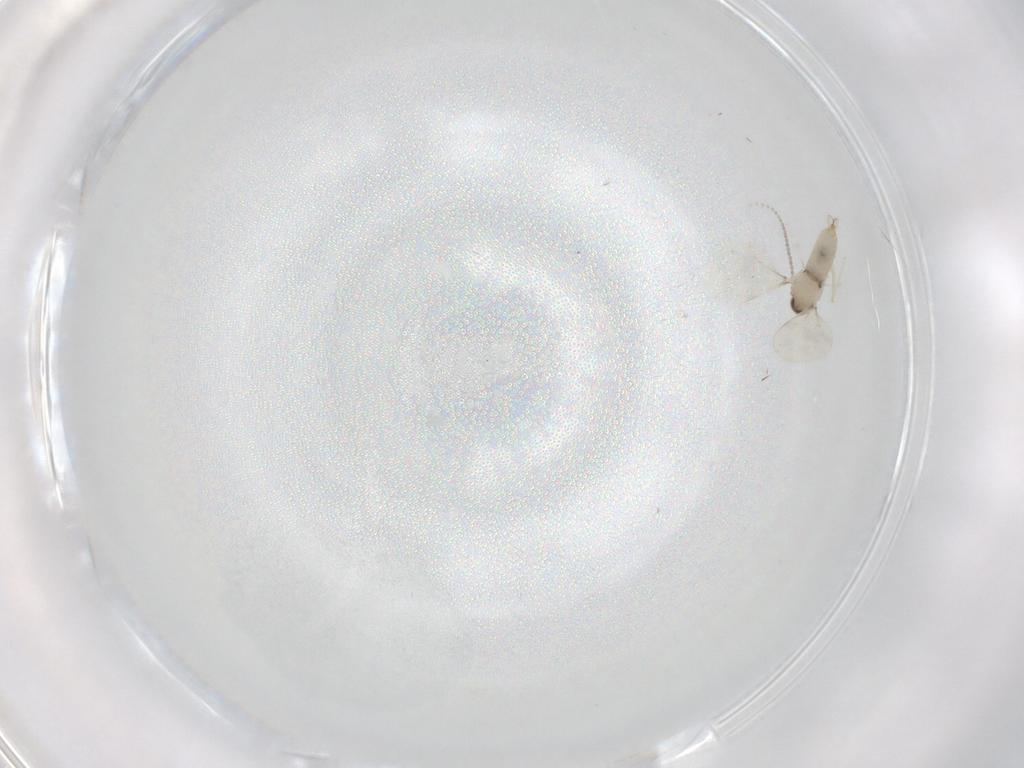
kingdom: Animalia
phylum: Arthropoda
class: Insecta
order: Diptera
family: Cecidomyiidae
